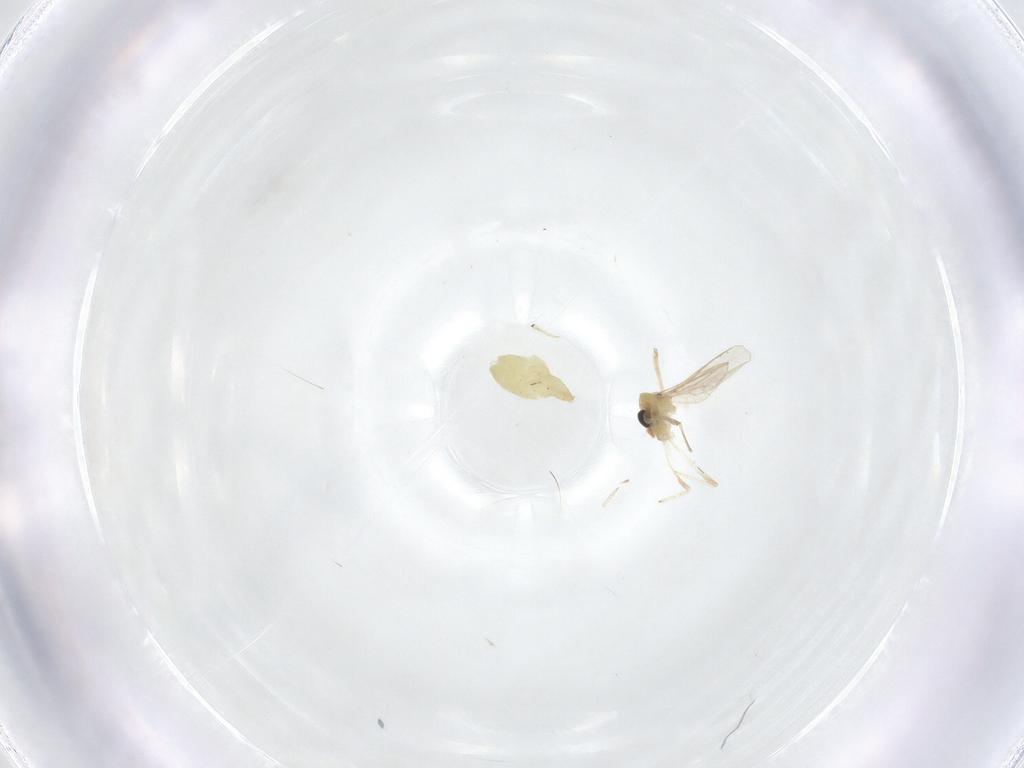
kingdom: Animalia
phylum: Arthropoda
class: Insecta
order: Diptera
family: Chironomidae
